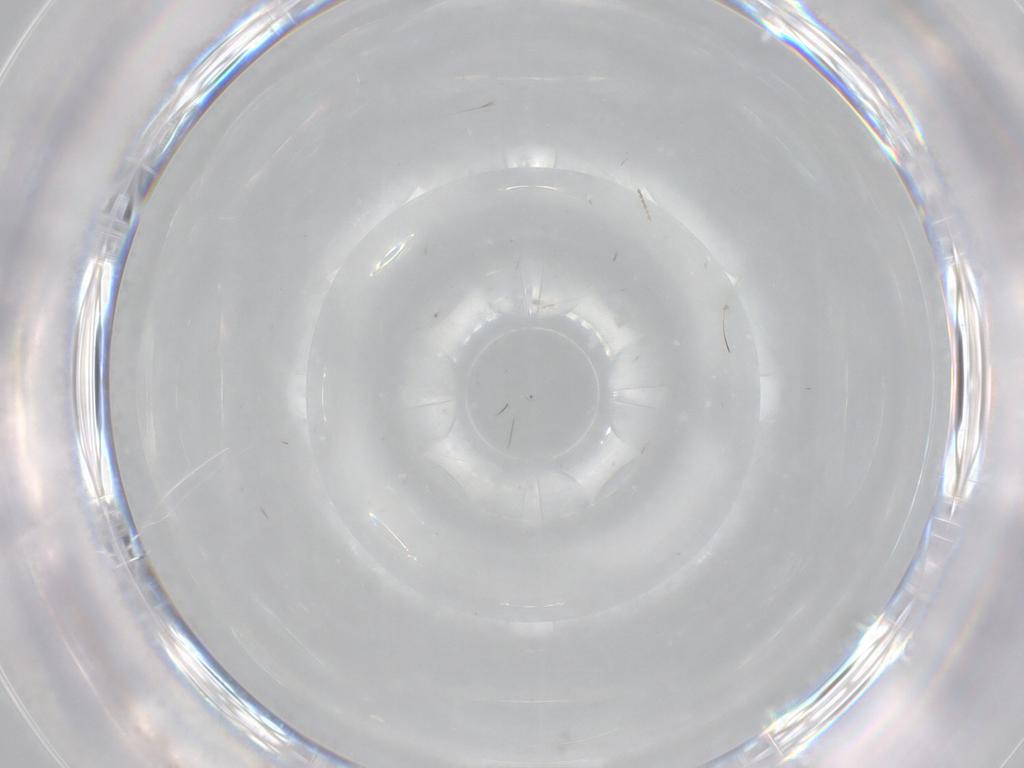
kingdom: Animalia
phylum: Arthropoda
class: Insecta
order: Diptera
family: Cecidomyiidae
